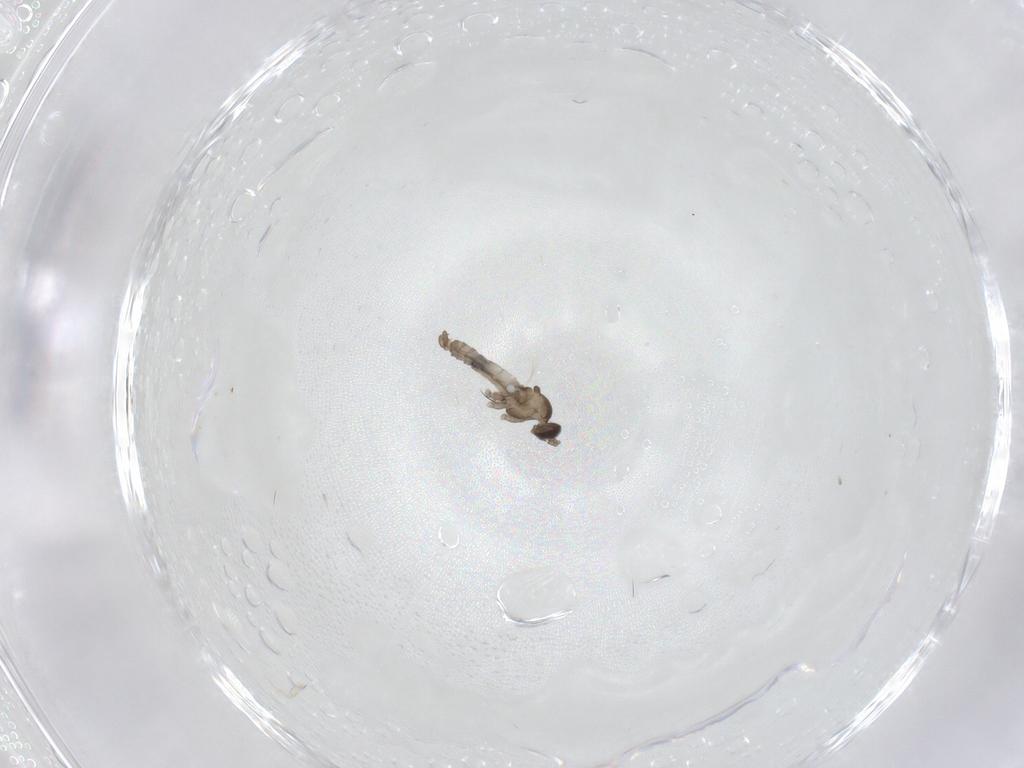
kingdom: Animalia
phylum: Arthropoda
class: Insecta
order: Diptera
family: Cecidomyiidae
